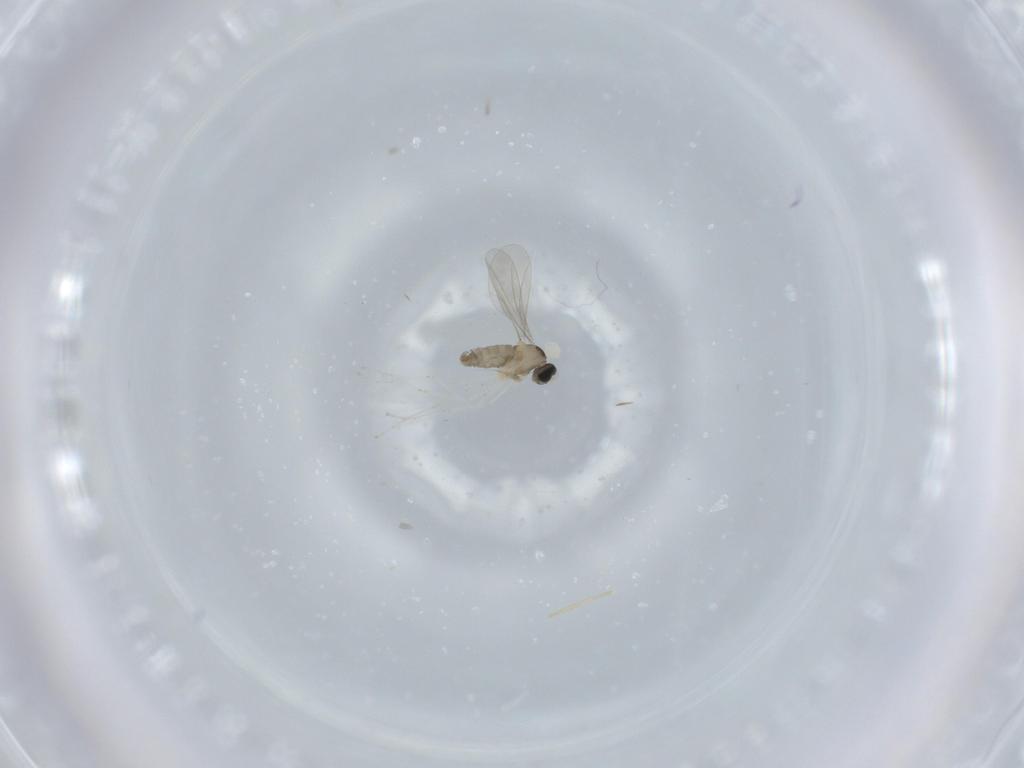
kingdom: Animalia
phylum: Arthropoda
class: Insecta
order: Diptera
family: Cecidomyiidae
